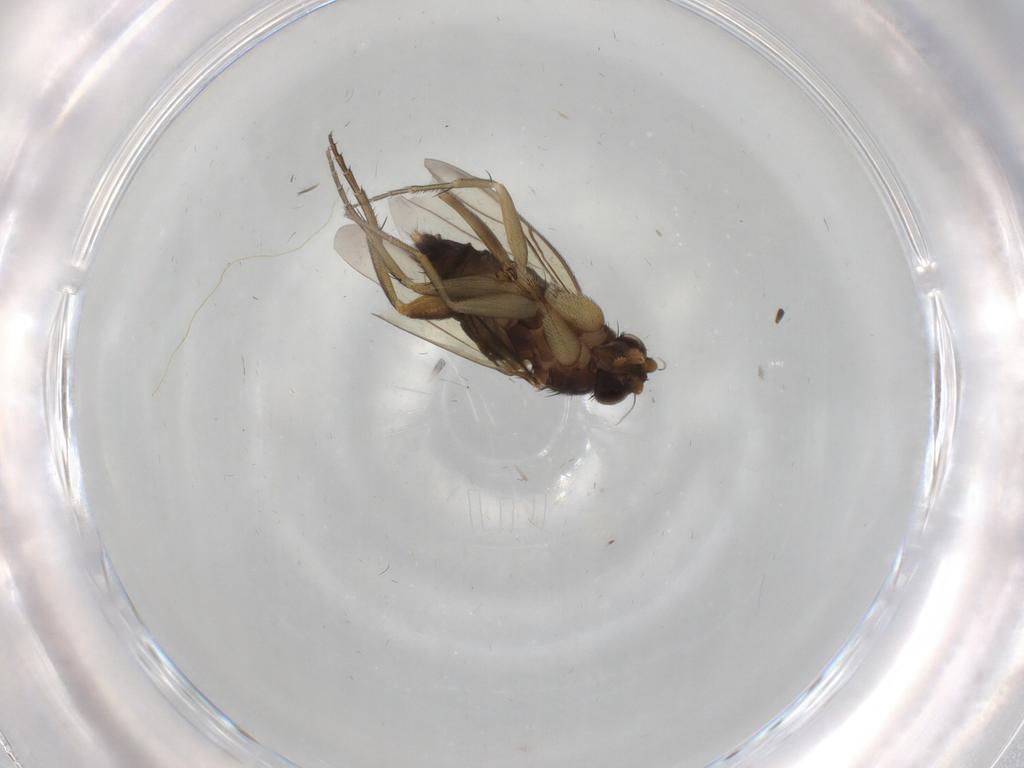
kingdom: Animalia
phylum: Arthropoda
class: Insecta
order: Diptera
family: Phoridae
